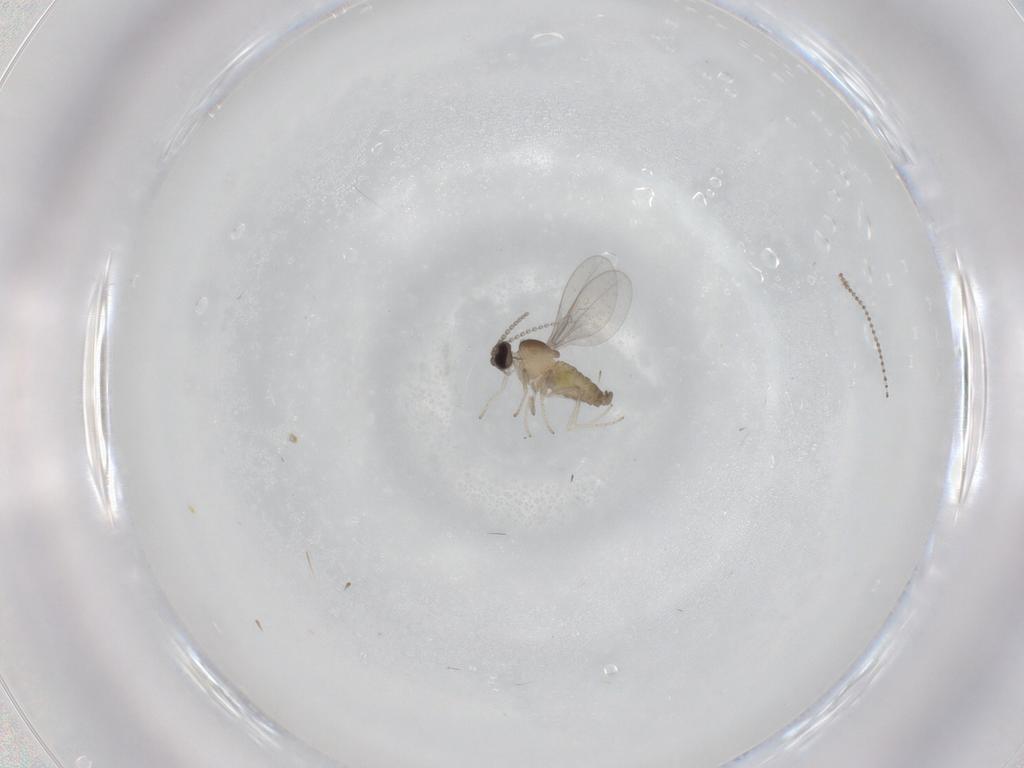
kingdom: Animalia
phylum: Arthropoda
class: Insecta
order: Diptera
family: Cecidomyiidae
